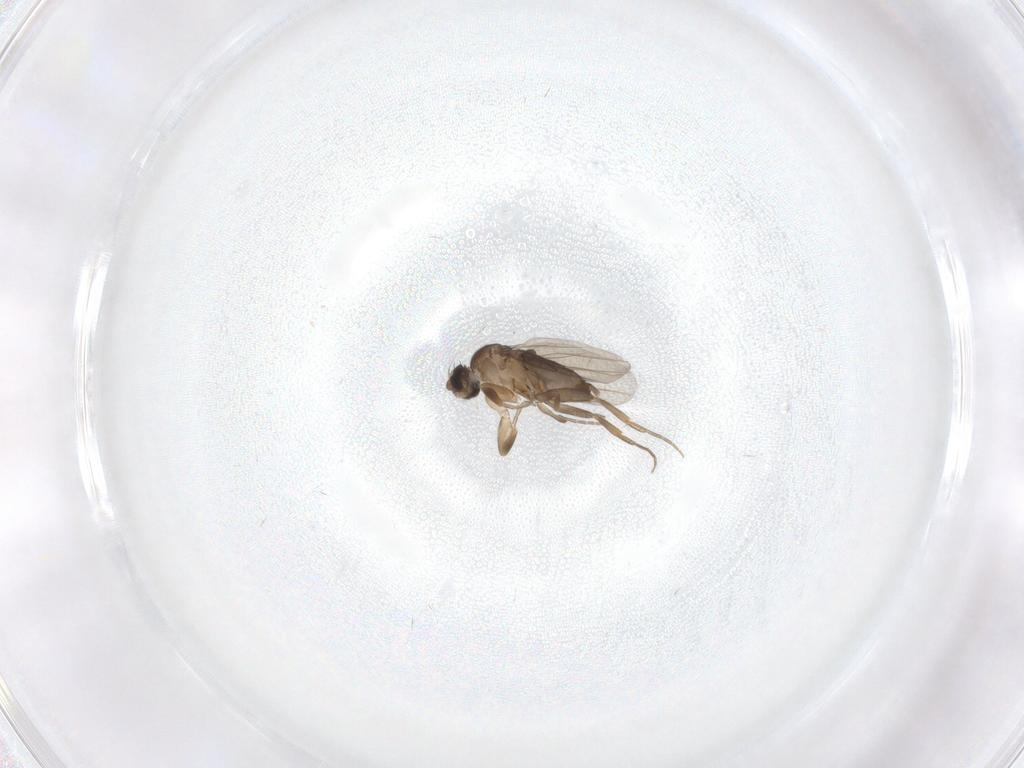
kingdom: Animalia
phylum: Arthropoda
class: Insecta
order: Diptera
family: Phoridae
